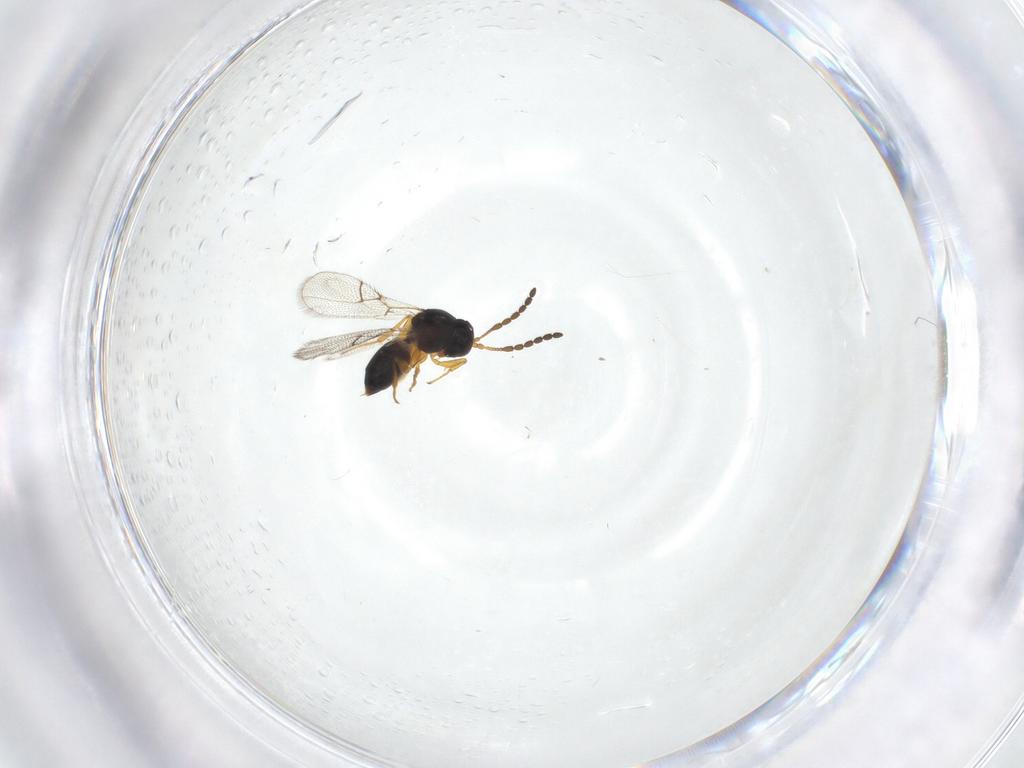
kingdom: Animalia
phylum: Arthropoda
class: Insecta
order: Hymenoptera
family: Figitidae
